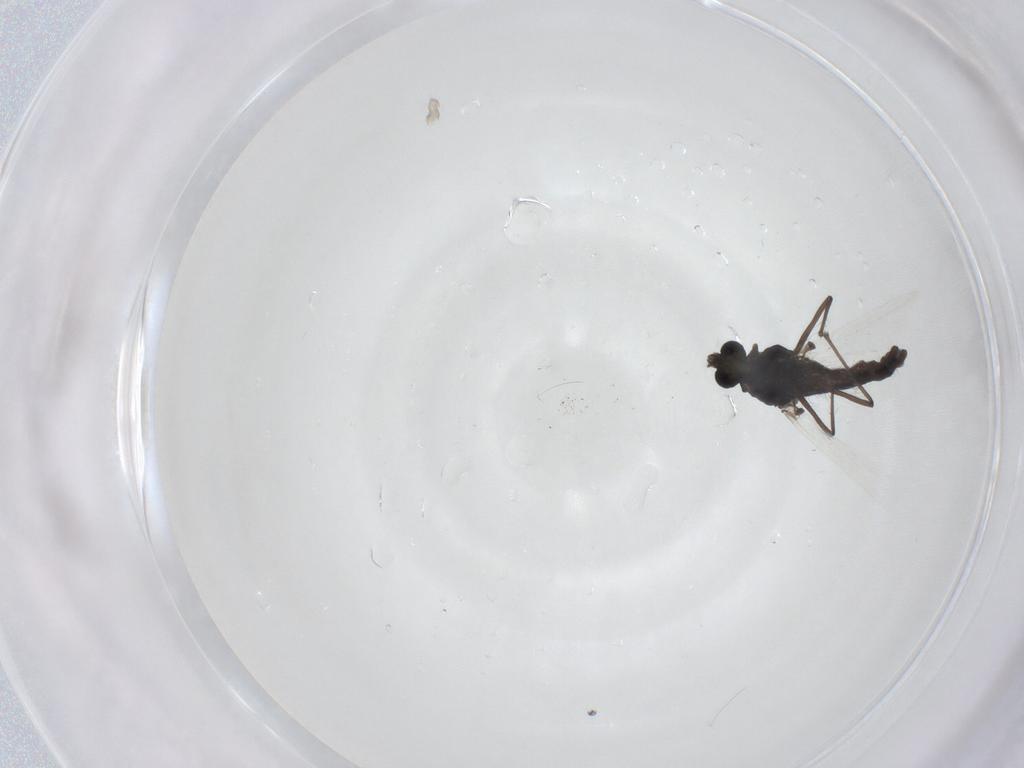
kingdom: Animalia
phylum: Arthropoda
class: Insecta
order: Diptera
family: Chironomidae
